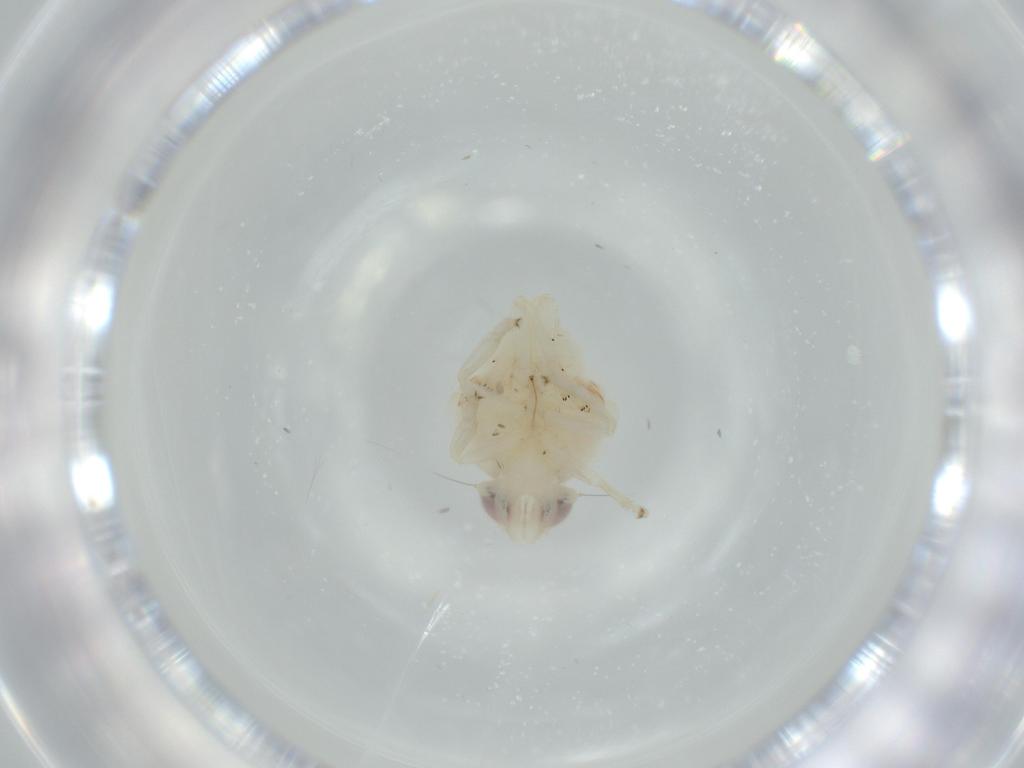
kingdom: Animalia
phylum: Arthropoda
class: Insecta
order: Hemiptera
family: Nogodinidae
